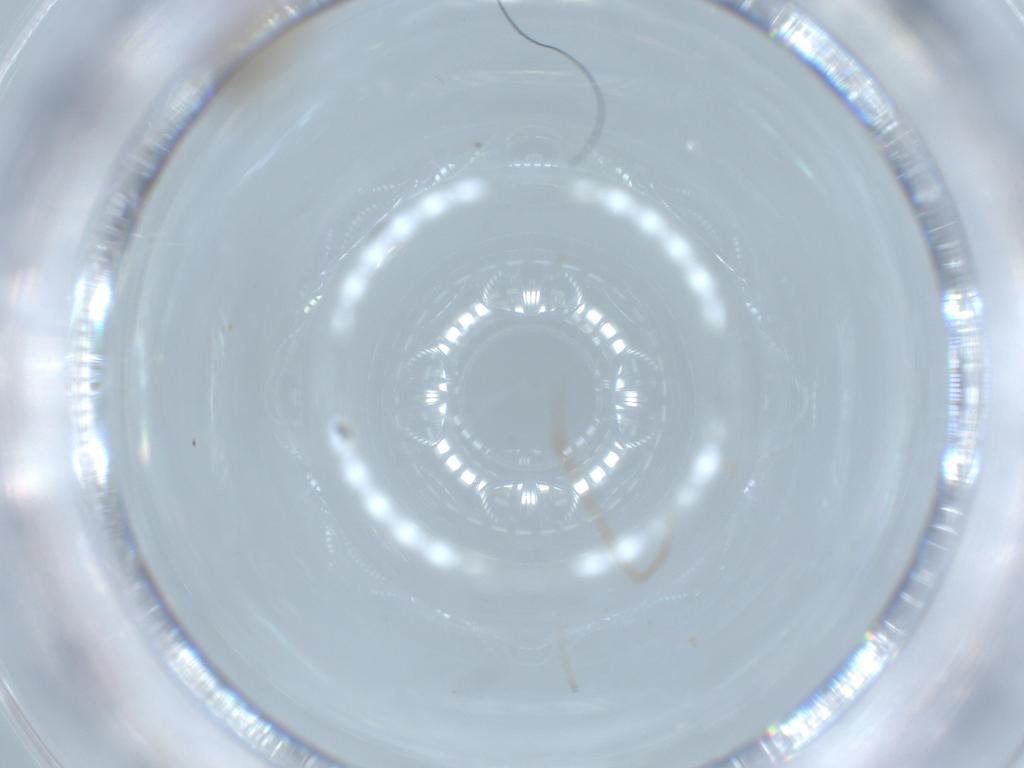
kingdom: Animalia
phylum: Arthropoda
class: Insecta
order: Blattodea
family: Blattidae
